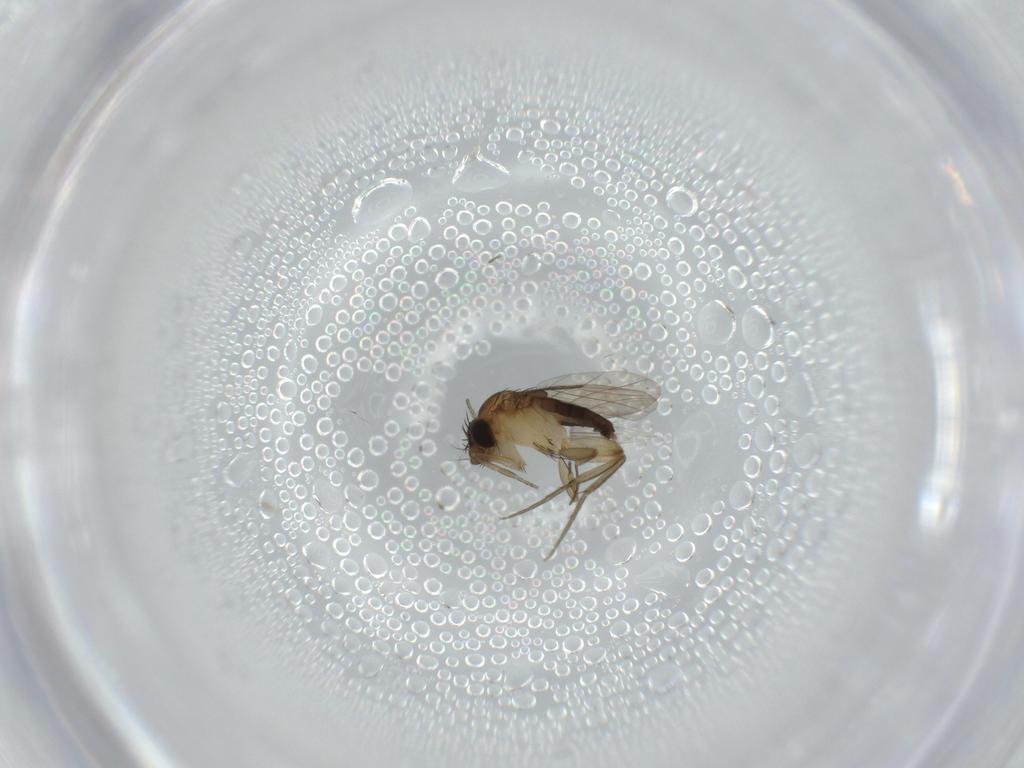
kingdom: Animalia
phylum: Arthropoda
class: Insecta
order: Diptera
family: Phoridae
